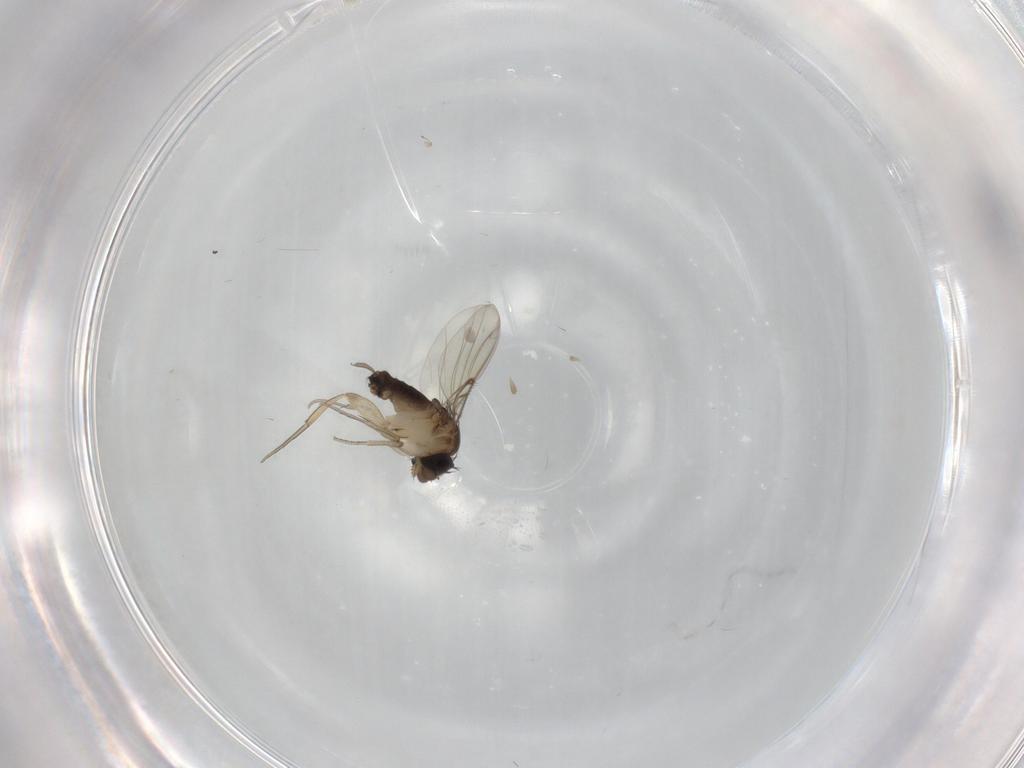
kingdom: Animalia
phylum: Arthropoda
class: Insecta
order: Diptera
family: Phoridae
